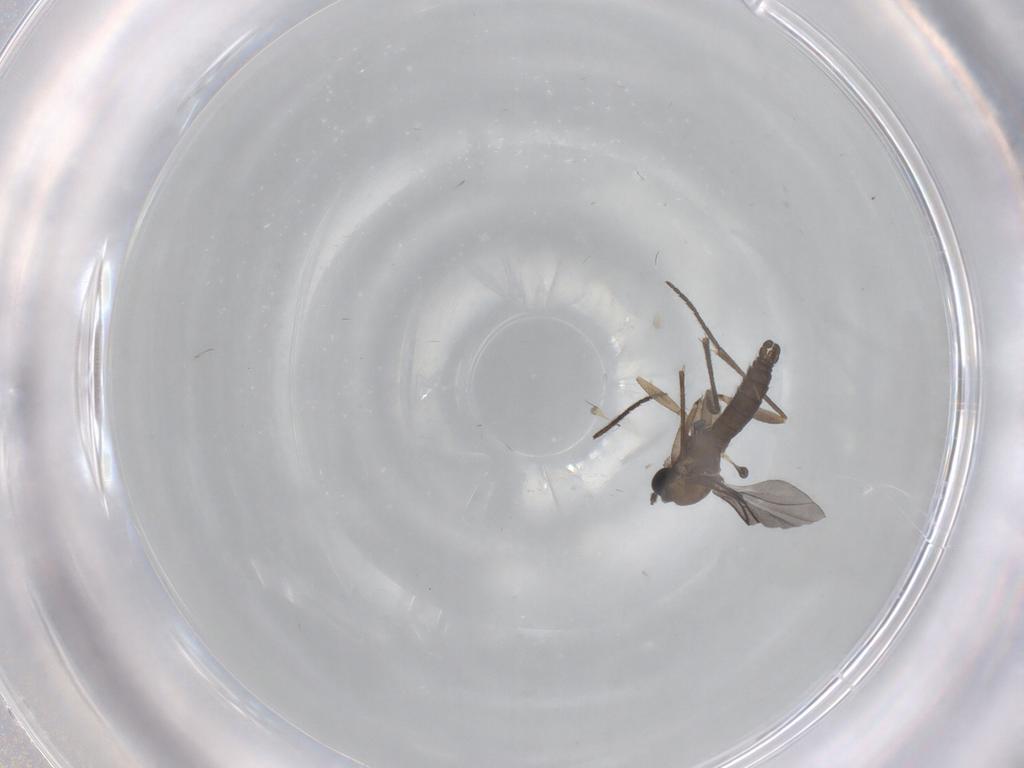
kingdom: Animalia
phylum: Arthropoda
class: Insecta
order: Diptera
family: Sciaridae
